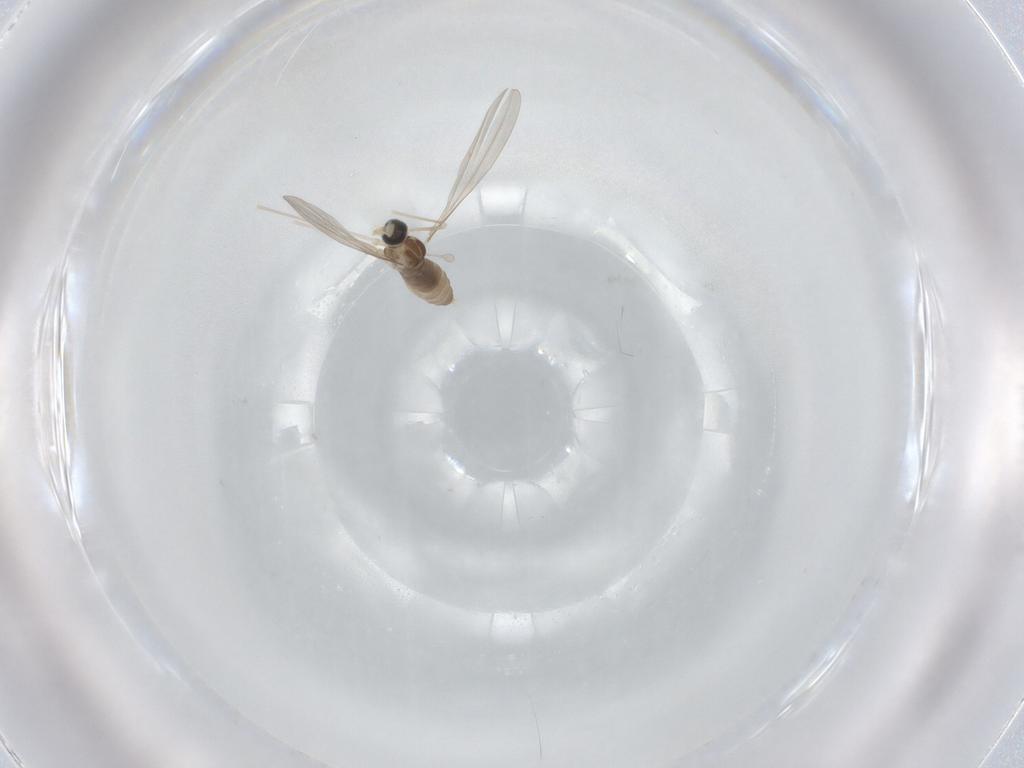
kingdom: Animalia
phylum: Arthropoda
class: Insecta
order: Diptera
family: Cecidomyiidae
